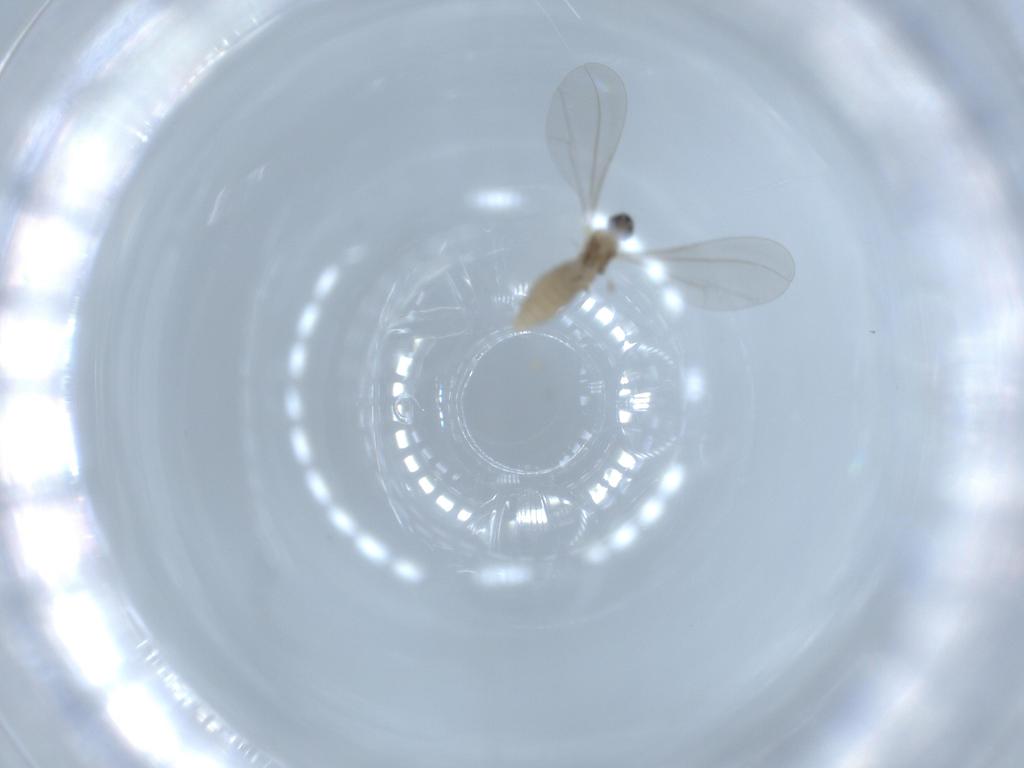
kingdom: Animalia
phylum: Arthropoda
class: Insecta
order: Diptera
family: Cecidomyiidae
